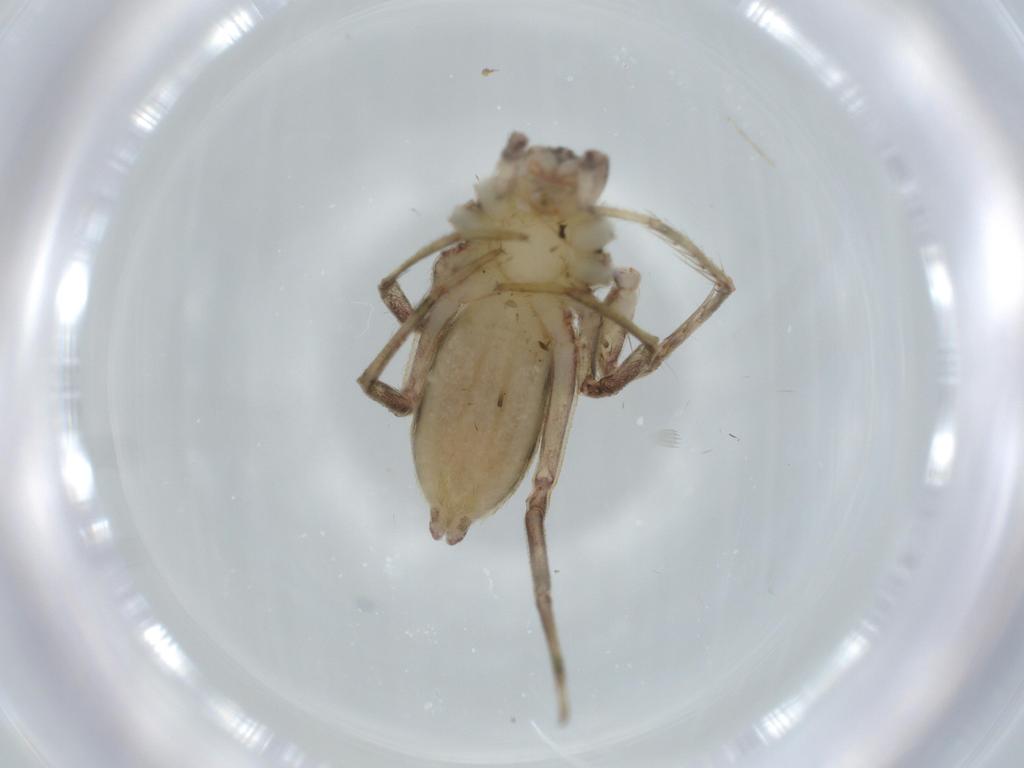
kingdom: Animalia
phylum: Arthropoda
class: Arachnida
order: Araneae
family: Senoculidae
